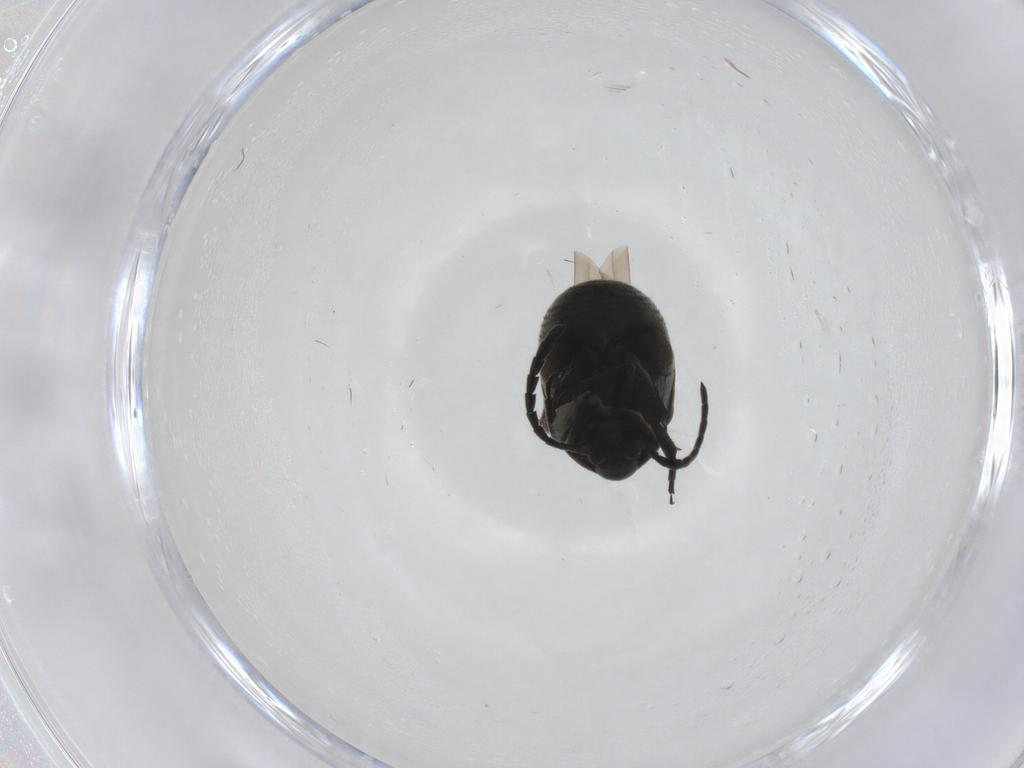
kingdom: Animalia
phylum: Arthropoda
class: Insecta
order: Coleoptera
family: Chrysomelidae
